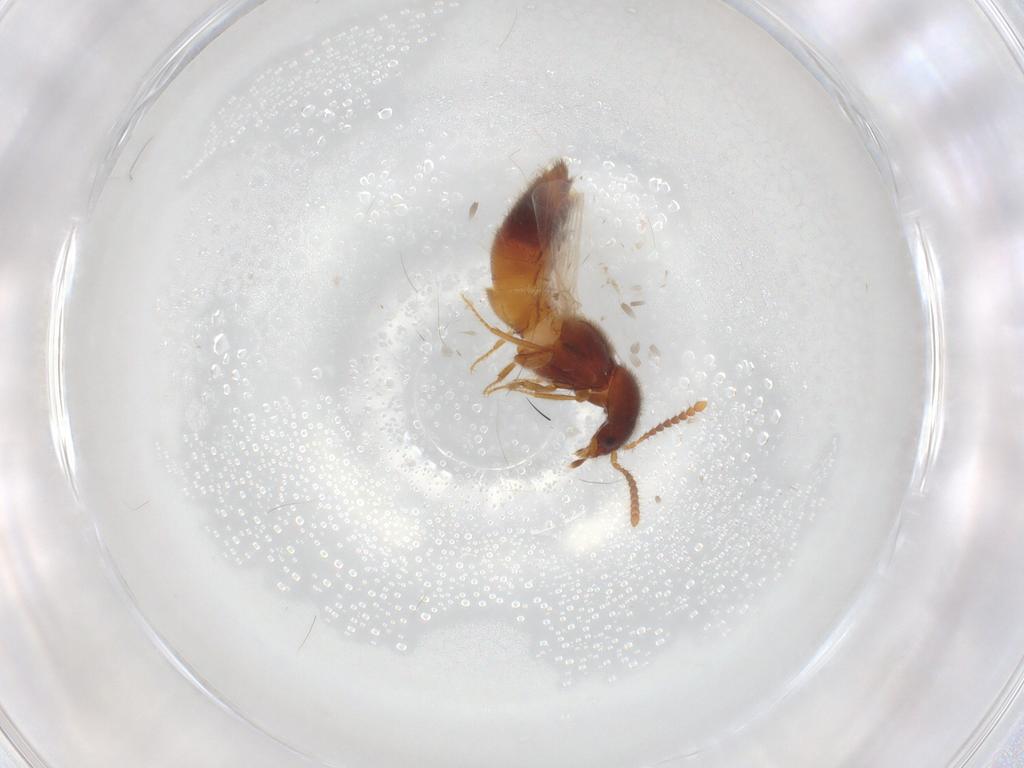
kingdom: Animalia
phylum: Arthropoda
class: Insecta
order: Coleoptera
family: Staphylinidae
